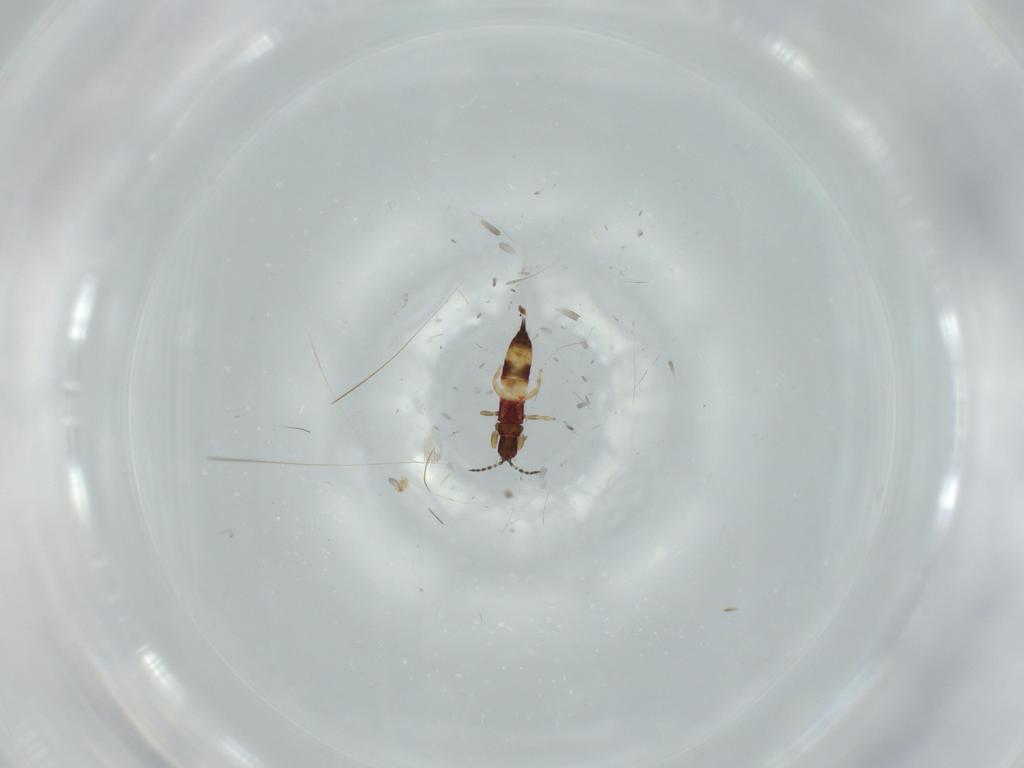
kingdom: Animalia
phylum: Arthropoda
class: Insecta
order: Thysanoptera
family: Phlaeothripidae
